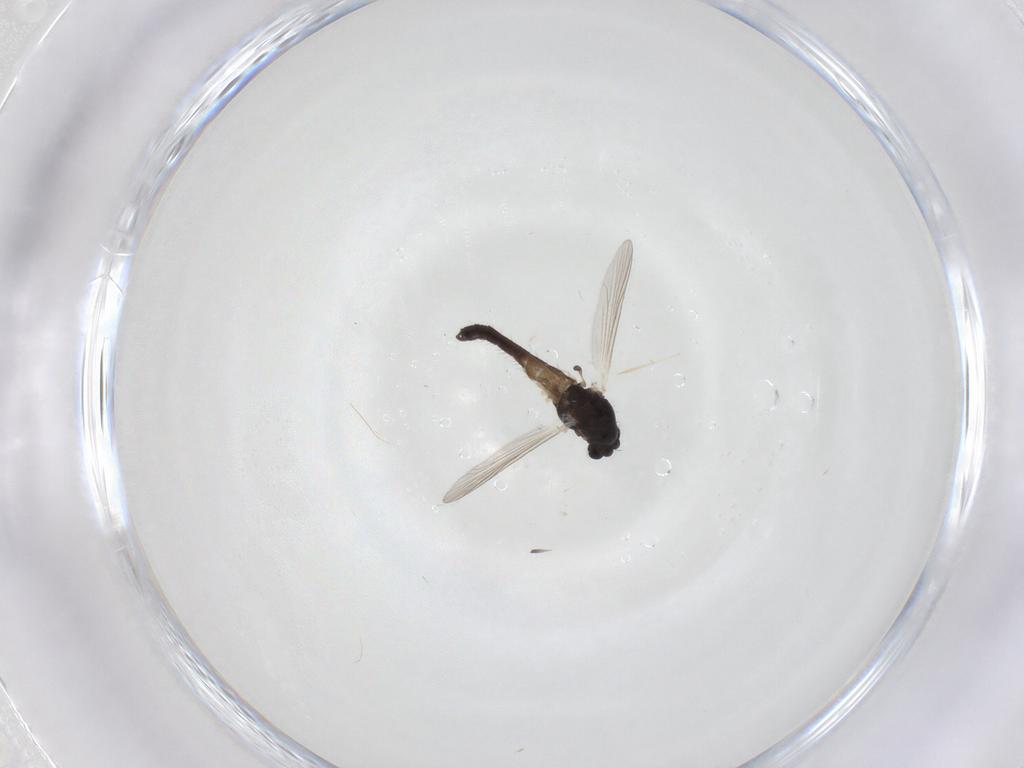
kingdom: Animalia
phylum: Arthropoda
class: Insecta
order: Diptera
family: Chironomidae
